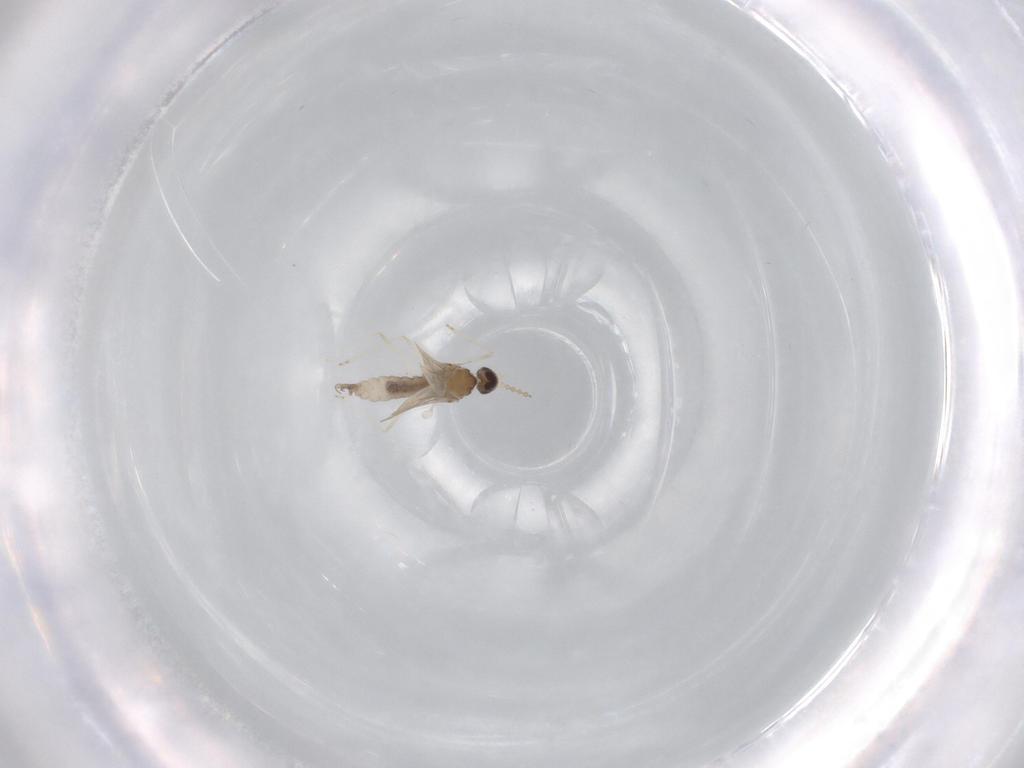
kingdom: Animalia
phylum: Arthropoda
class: Insecta
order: Diptera
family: Cecidomyiidae
